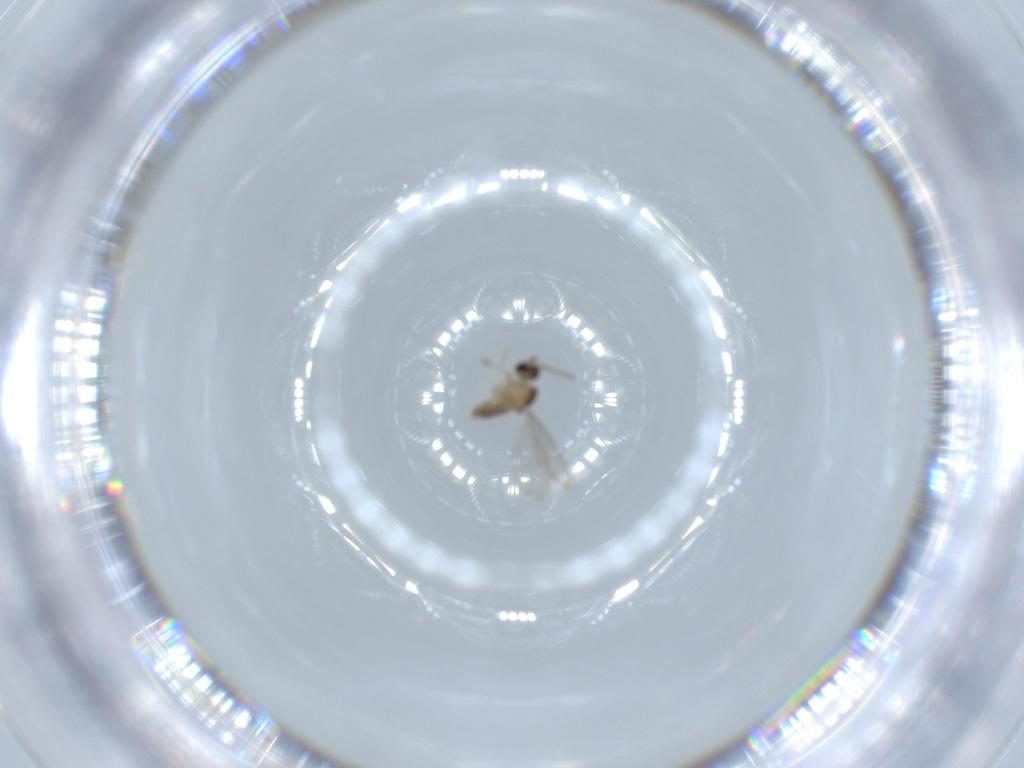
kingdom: Animalia
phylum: Arthropoda
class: Insecta
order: Diptera
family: Cecidomyiidae
